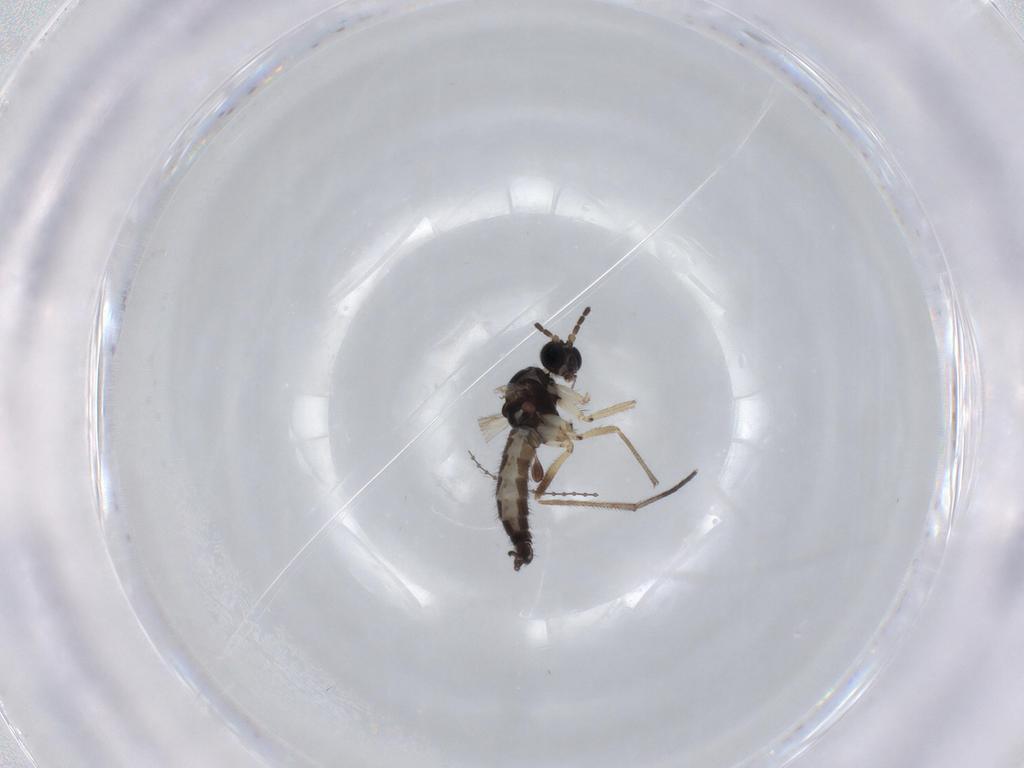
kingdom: Animalia
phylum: Arthropoda
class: Insecta
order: Diptera
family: Sciaridae
